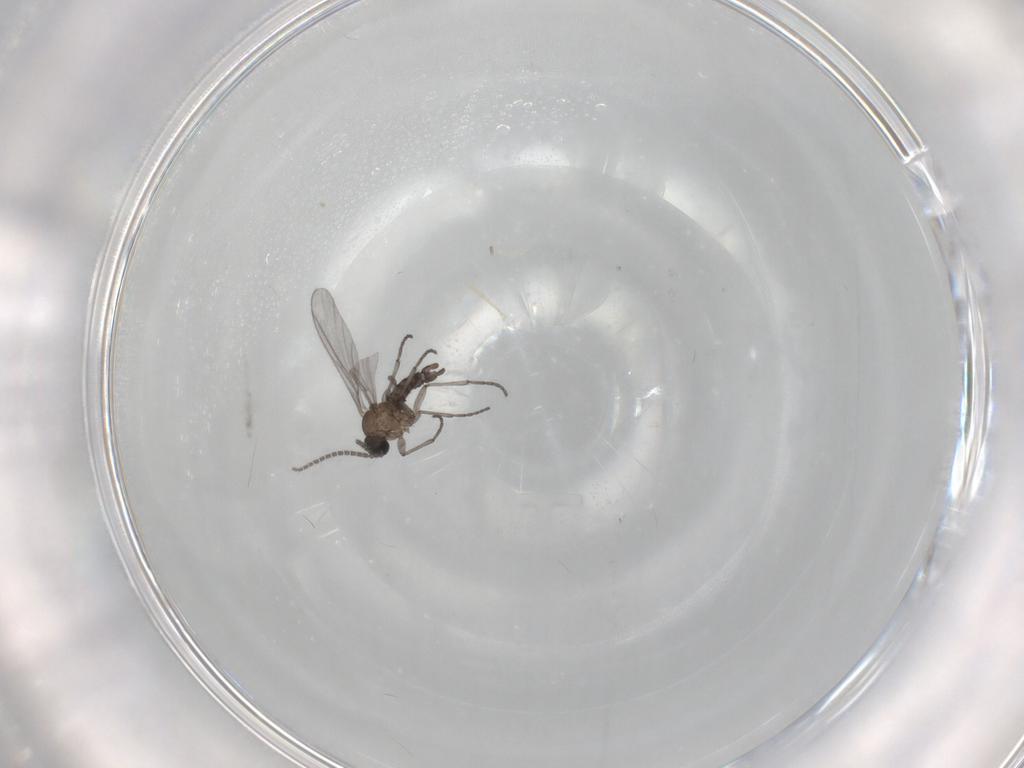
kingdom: Animalia
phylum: Arthropoda
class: Insecta
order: Diptera
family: Sciaridae
